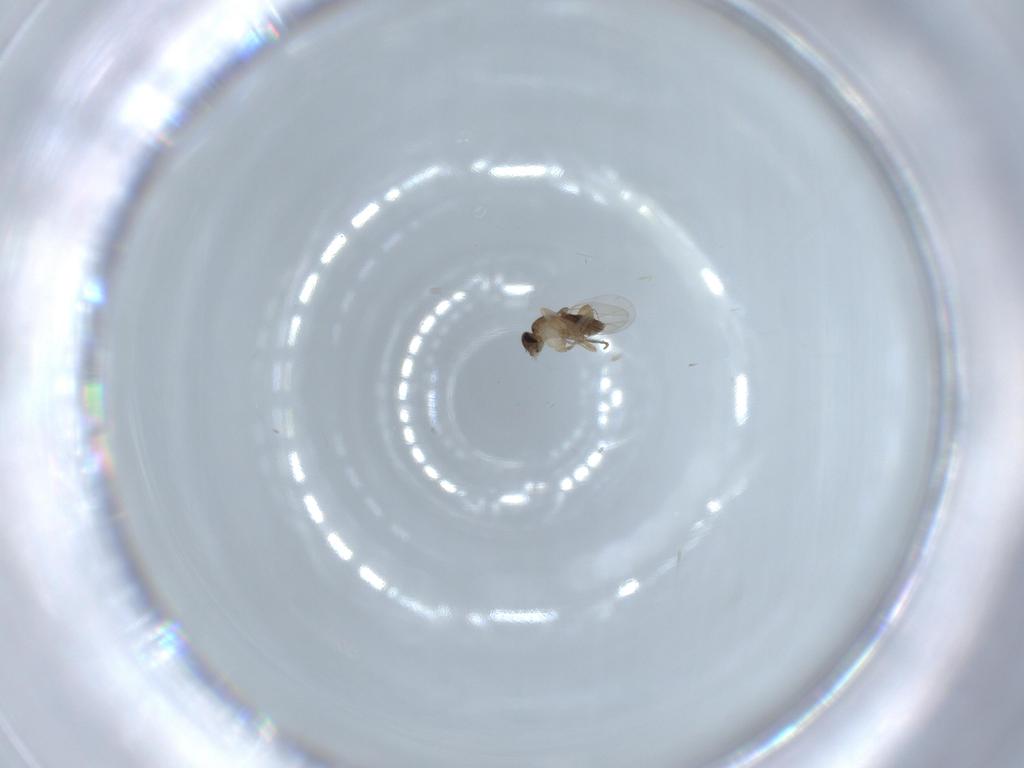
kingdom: Animalia
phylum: Arthropoda
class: Insecta
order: Diptera
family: Phoridae
